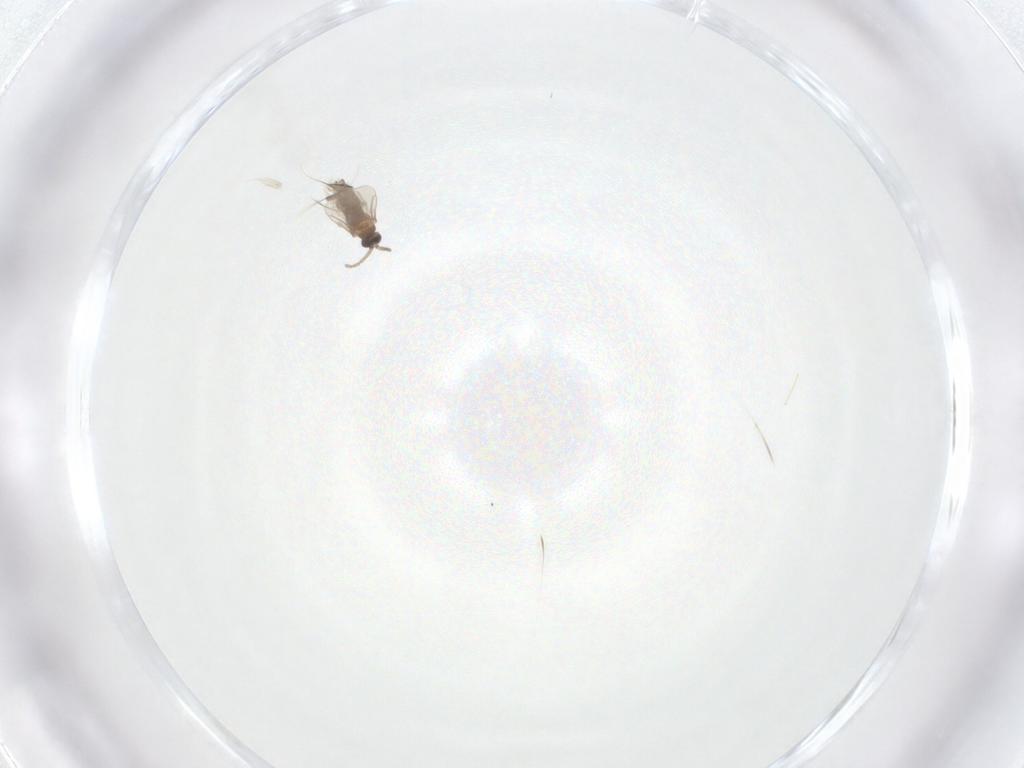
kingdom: Animalia
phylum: Arthropoda
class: Insecta
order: Diptera
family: Cecidomyiidae
